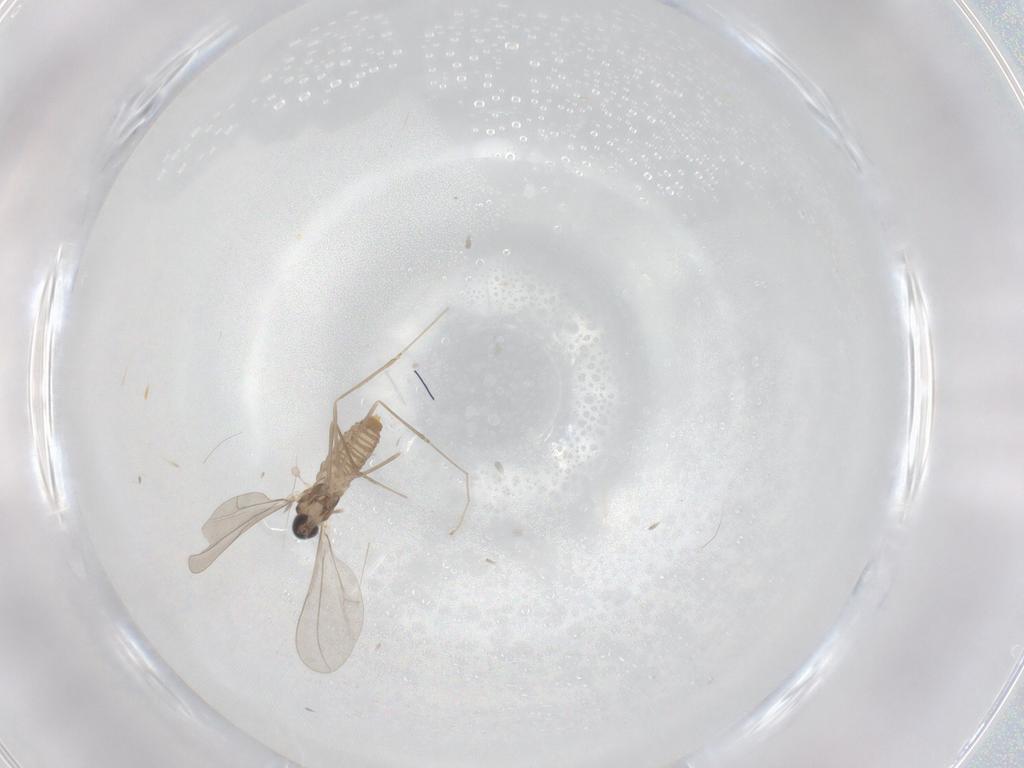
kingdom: Animalia
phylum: Arthropoda
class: Insecta
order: Diptera
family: Cecidomyiidae
